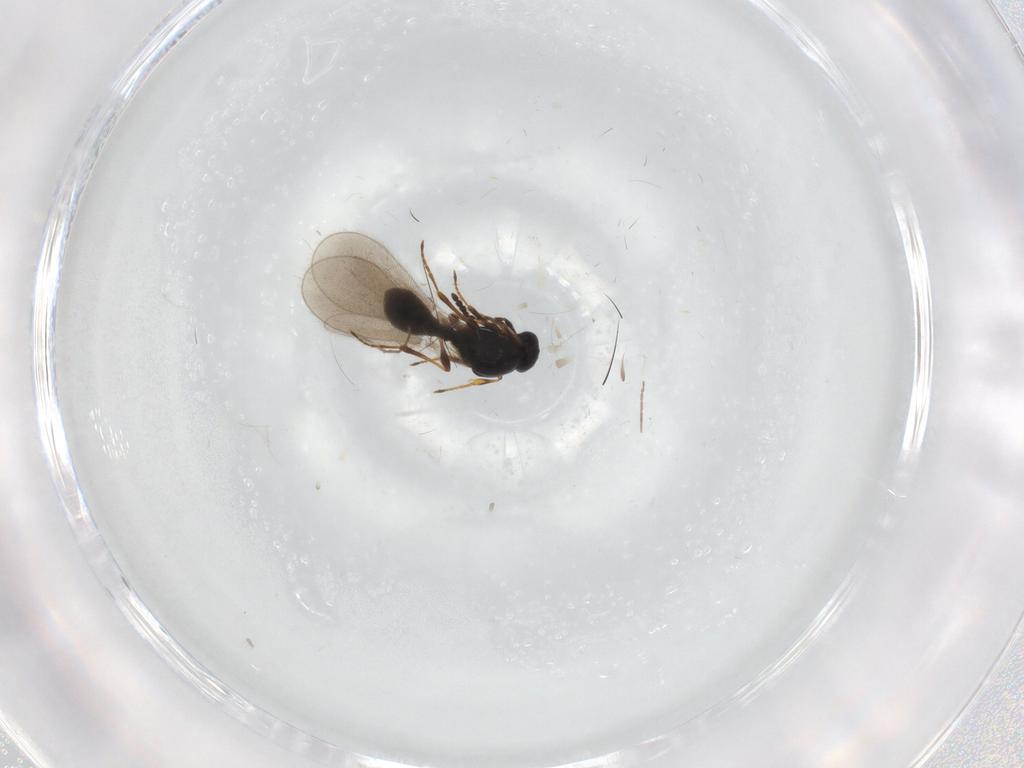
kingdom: Animalia
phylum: Arthropoda
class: Insecta
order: Hymenoptera
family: Platygastridae
